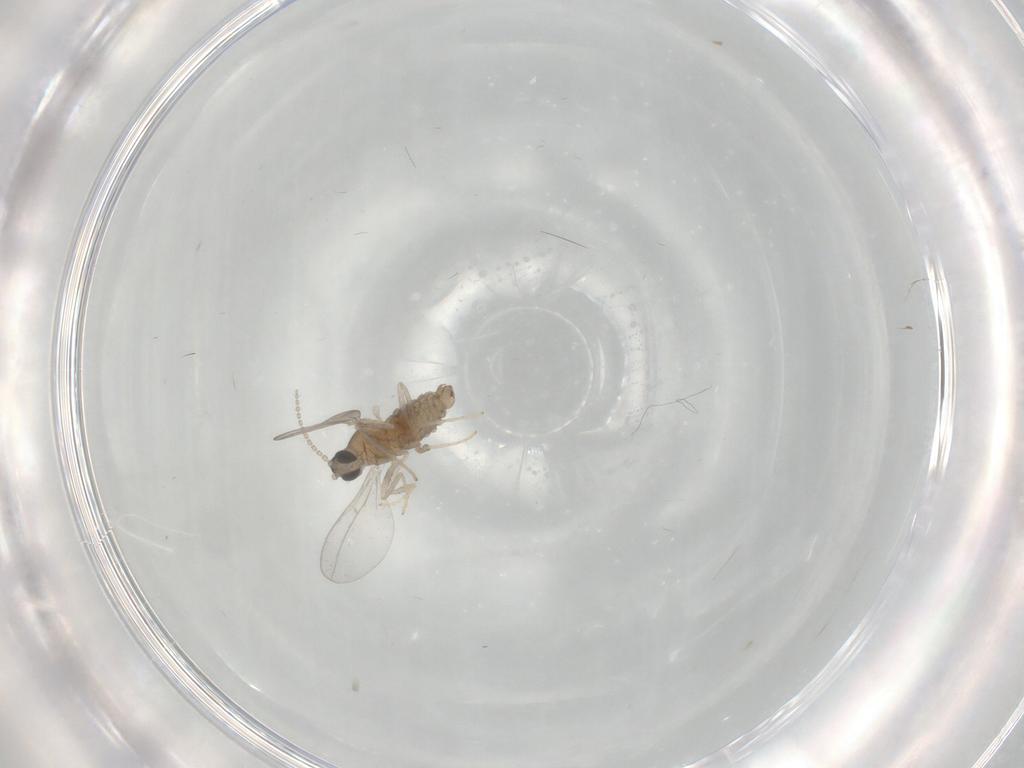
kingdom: Animalia
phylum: Arthropoda
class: Insecta
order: Diptera
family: Cecidomyiidae
